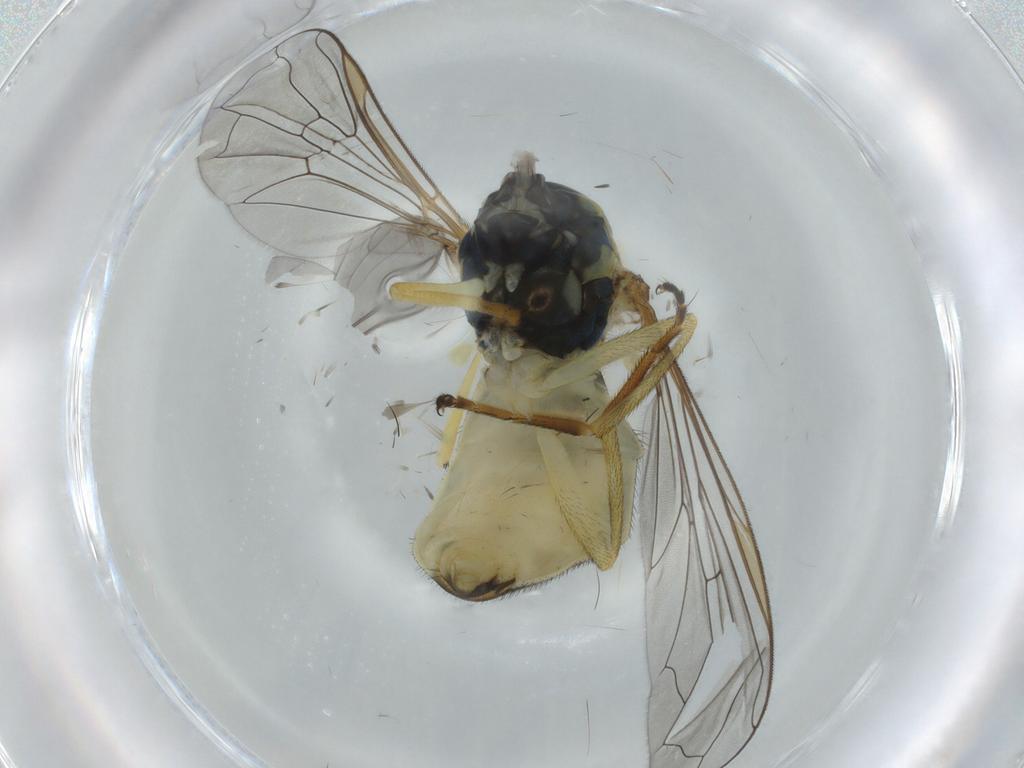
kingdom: Animalia
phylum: Arthropoda
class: Insecta
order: Diptera
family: Syrphidae
